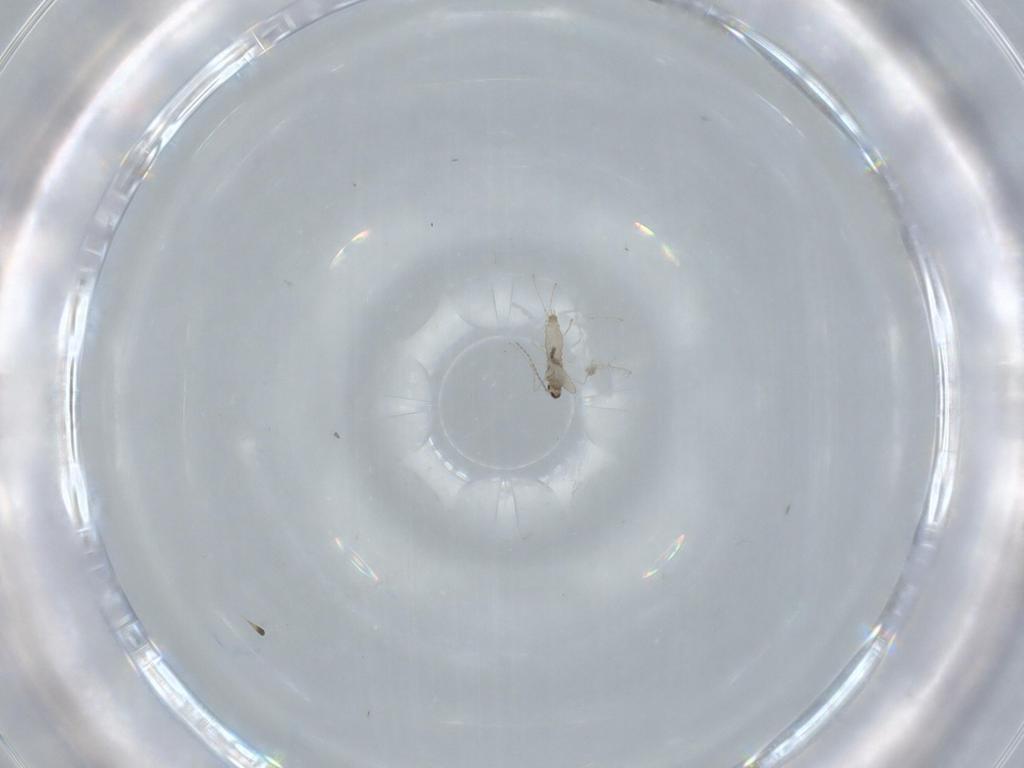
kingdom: Animalia
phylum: Arthropoda
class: Insecta
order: Diptera
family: Cecidomyiidae
